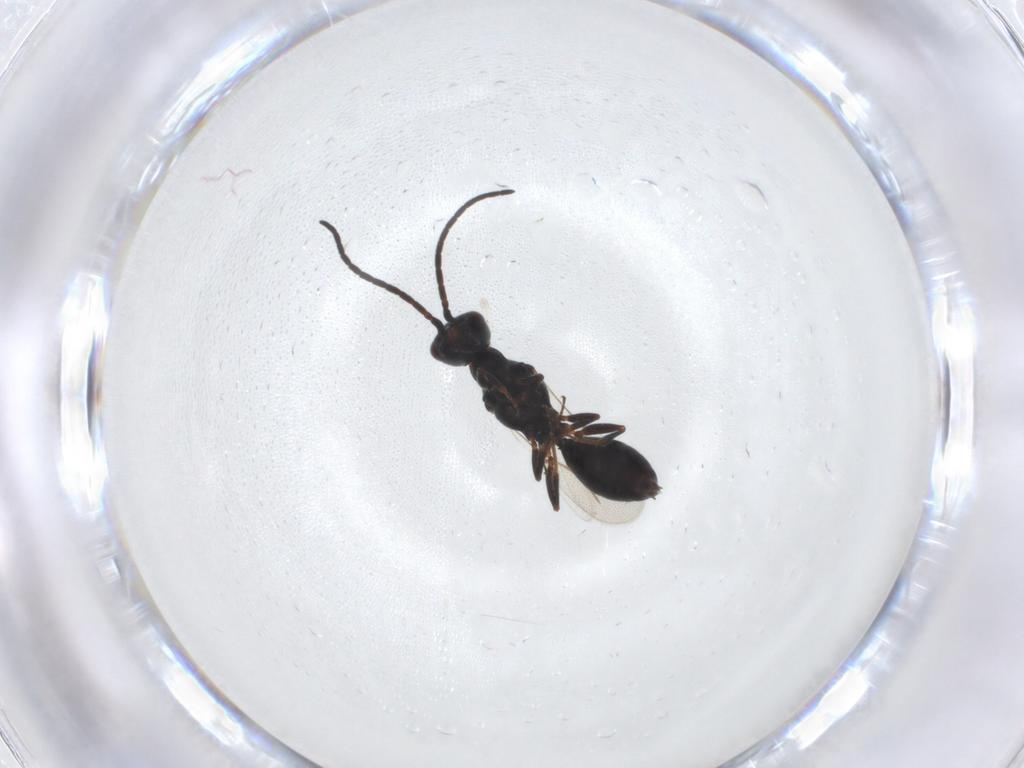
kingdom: Animalia
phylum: Arthropoda
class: Insecta
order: Hymenoptera
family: Bethylidae
